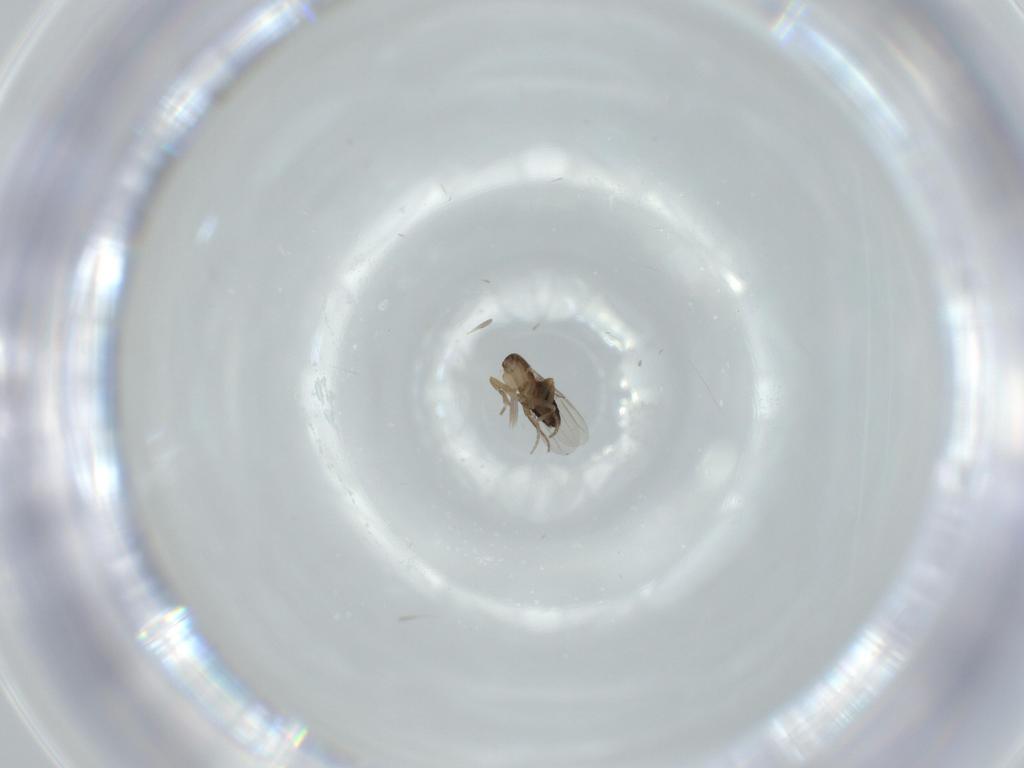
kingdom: Animalia
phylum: Arthropoda
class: Insecta
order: Diptera
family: Phoridae
